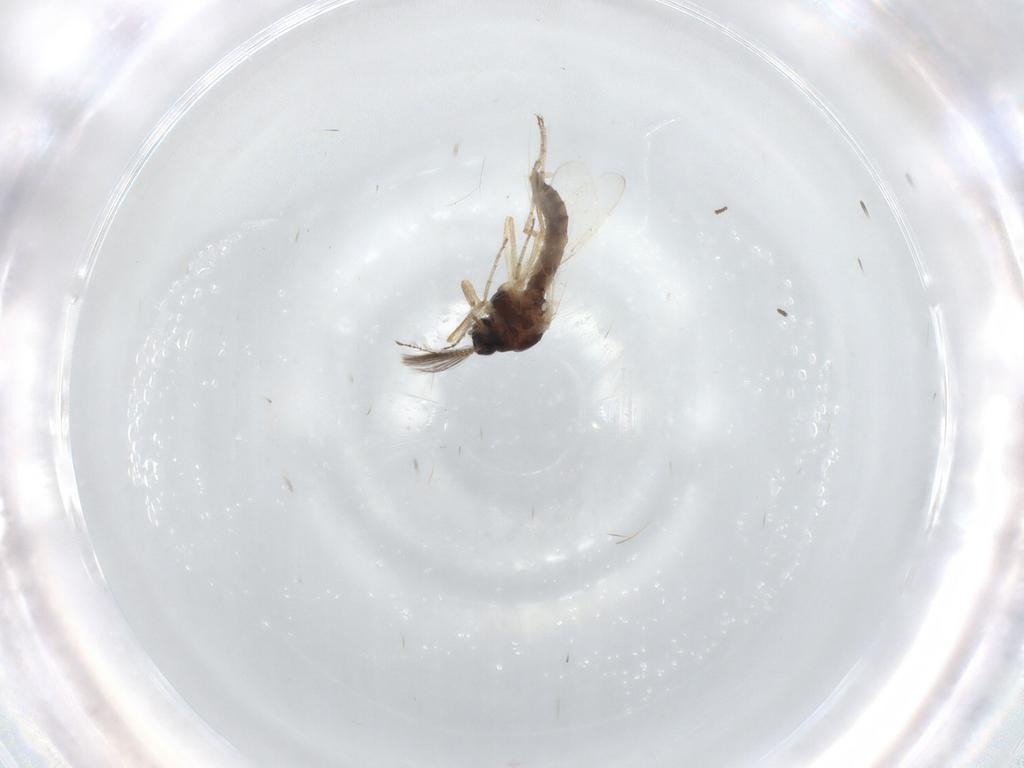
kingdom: Animalia
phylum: Arthropoda
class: Insecta
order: Diptera
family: Ceratopogonidae
